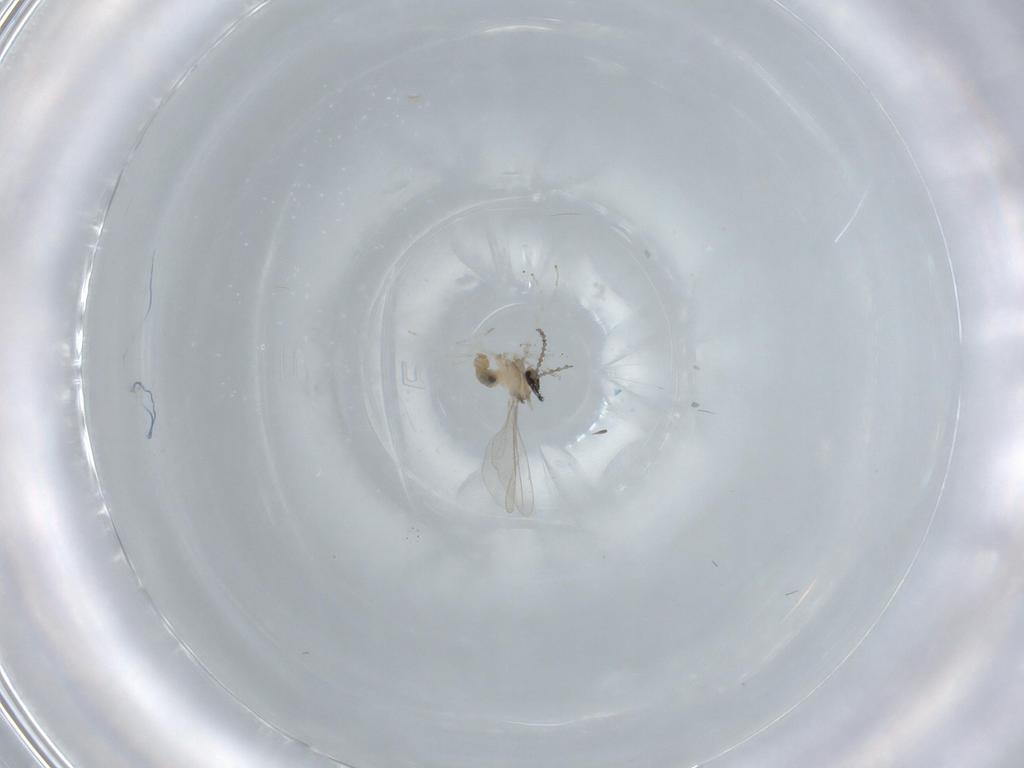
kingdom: Animalia
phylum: Arthropoda
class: Insecta
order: Diptera
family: Cecidomyiidae
